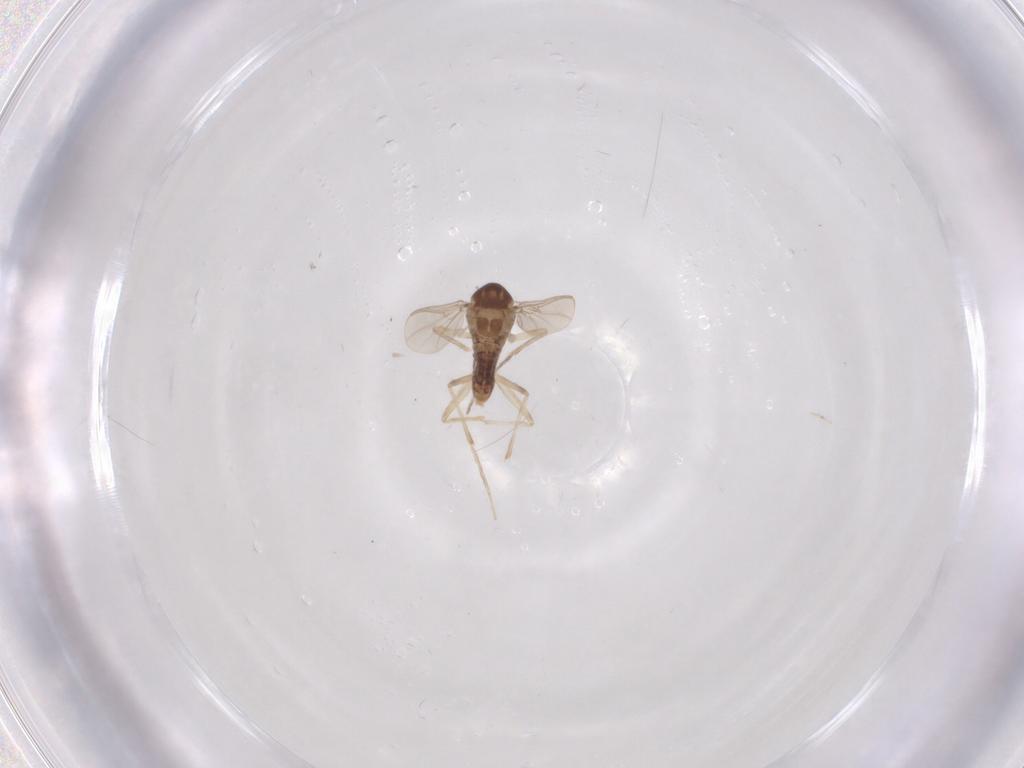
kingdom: Animalia
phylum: Arthropoda
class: Insecta
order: Diptera
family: Chironomidae
